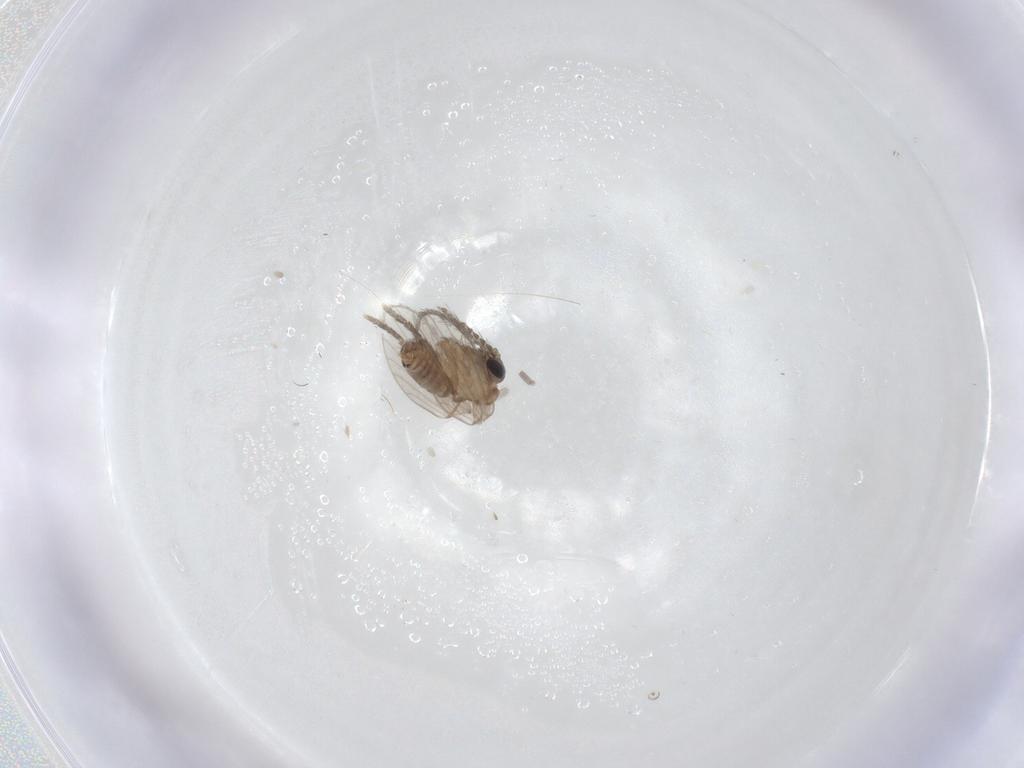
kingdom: Animalia
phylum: Arthropoda
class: Insecta
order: Diptera
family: Psychodidae
